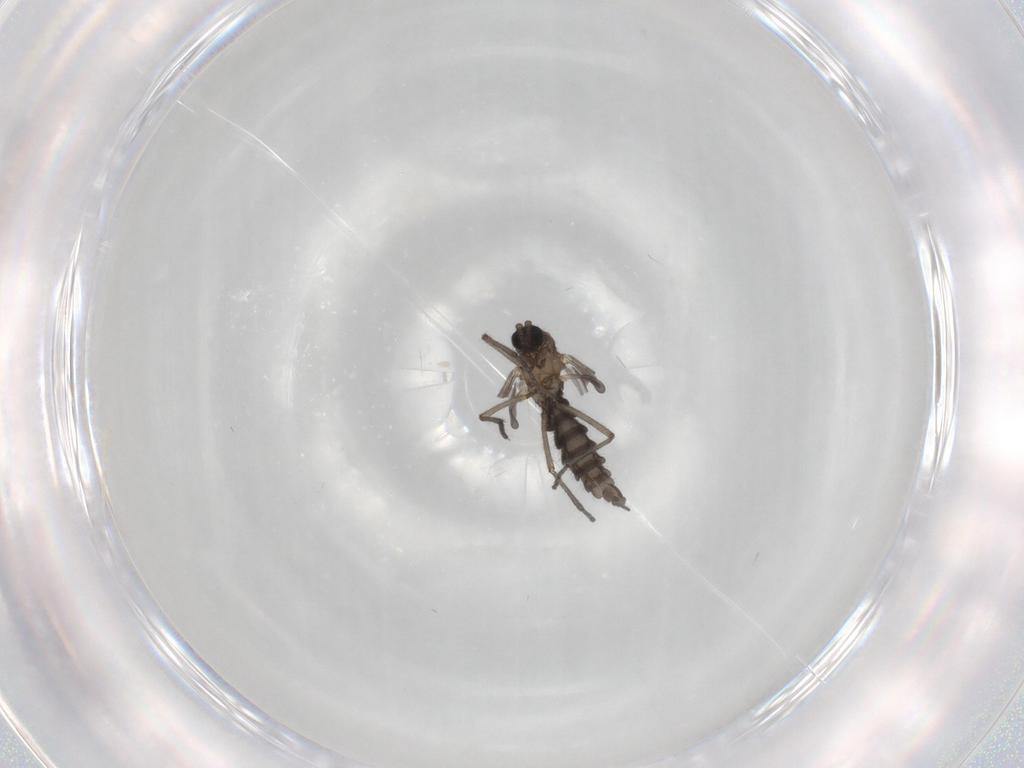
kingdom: Animalia
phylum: Arthropoda
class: Insecta
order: Diptera
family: Sciaridae
